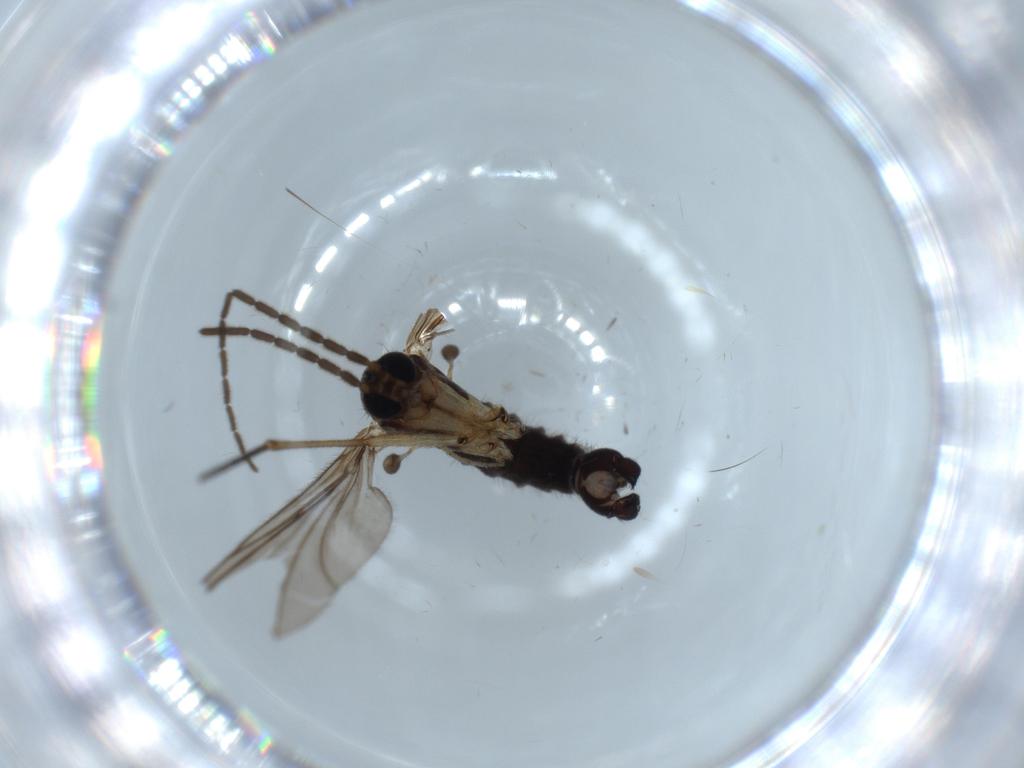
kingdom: Animalia
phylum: Arthropoda
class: Insecta
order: Diptera
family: Sciaridae
